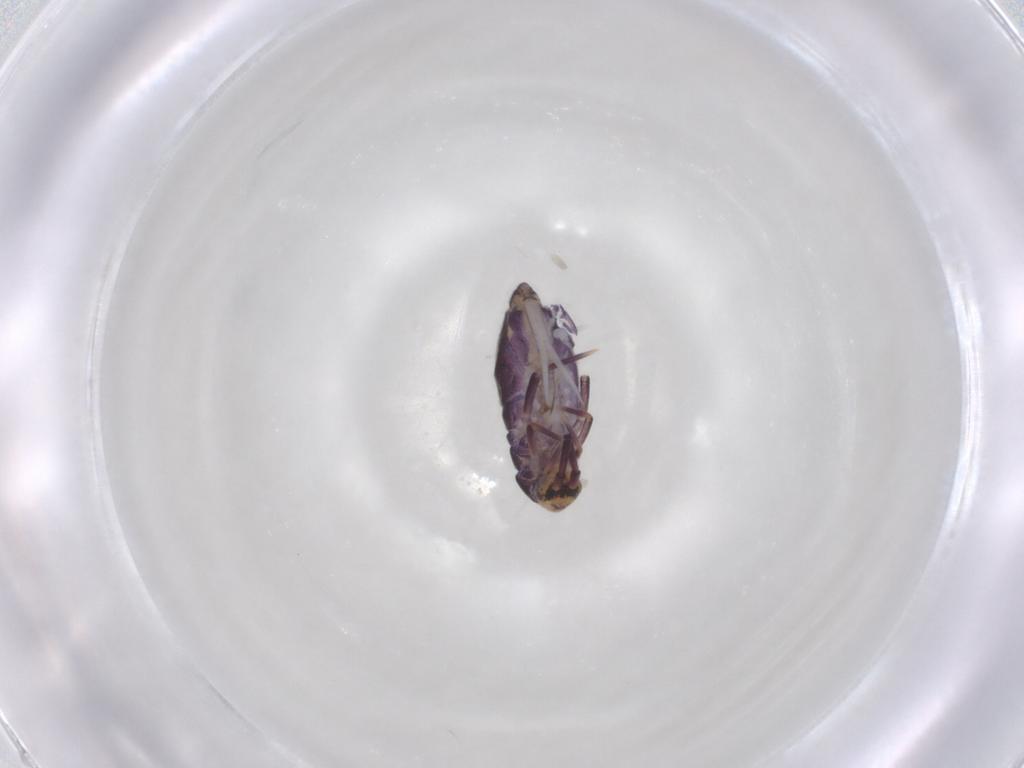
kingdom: Animalia
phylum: Arthropoda
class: Collembola
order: Entomobryomorpha
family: Entomobryidae
